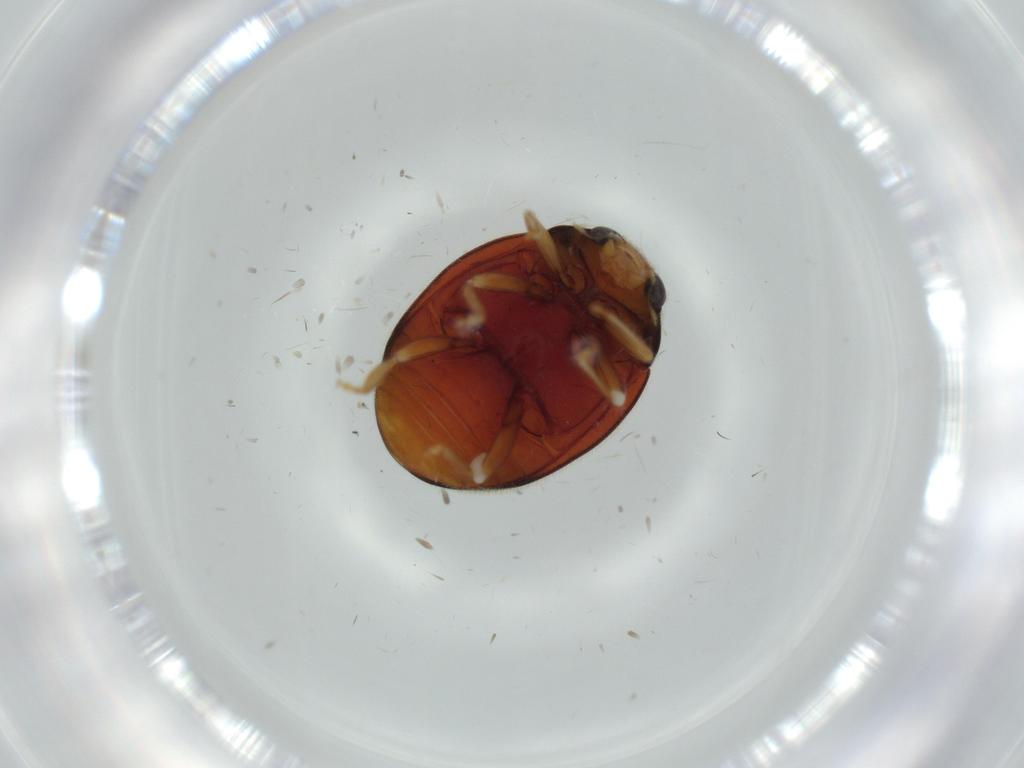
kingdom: Animalia
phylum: Arthropoda
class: Insecta
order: Coleoptera
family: Coccinellidae
